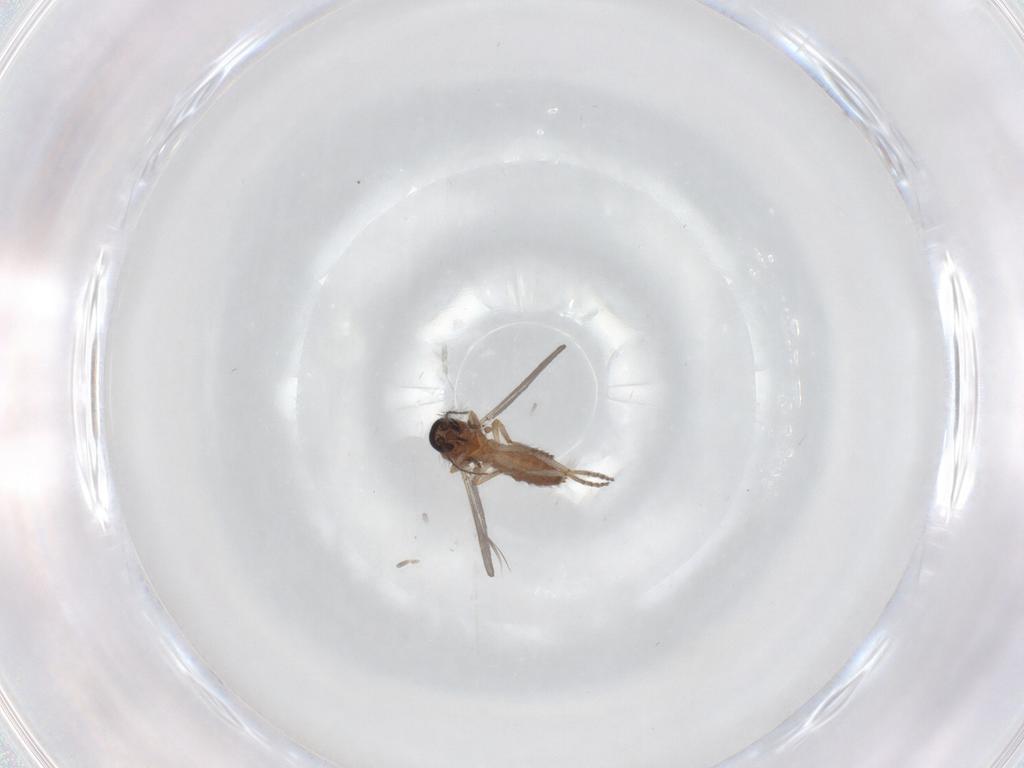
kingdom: Animalia
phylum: Arthropoda
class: Insecta
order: Diptera
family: Ceratopogonidae
